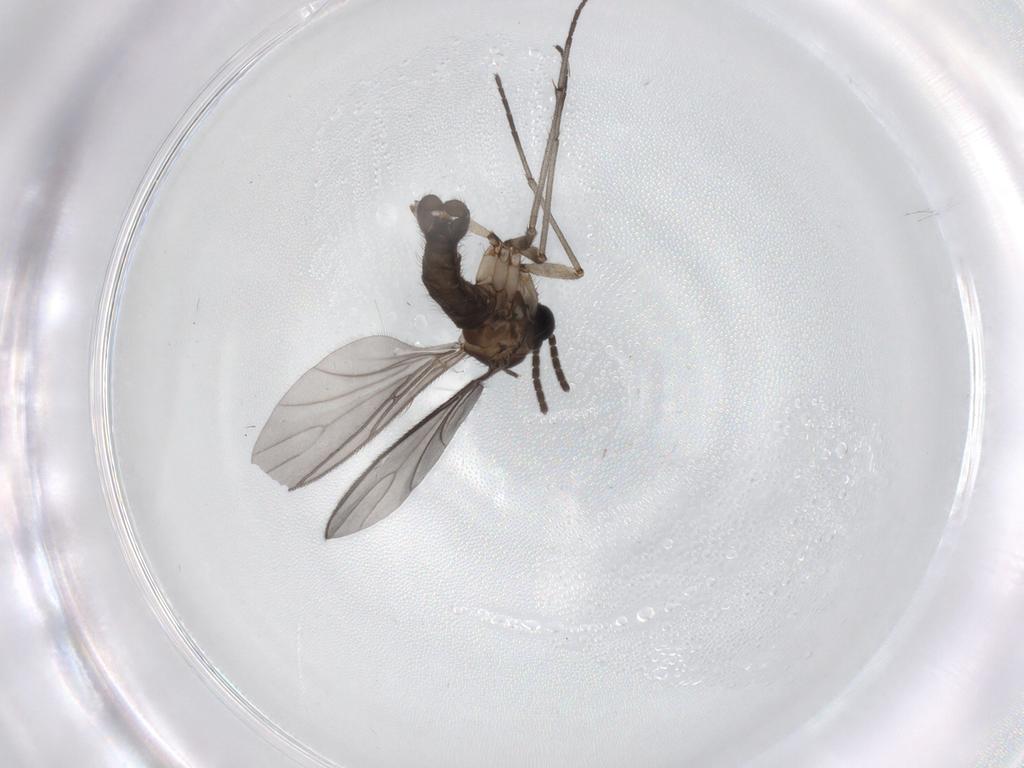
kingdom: Animalia
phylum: Arthropoda
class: Insecta
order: Diptera
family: Sciaridae
